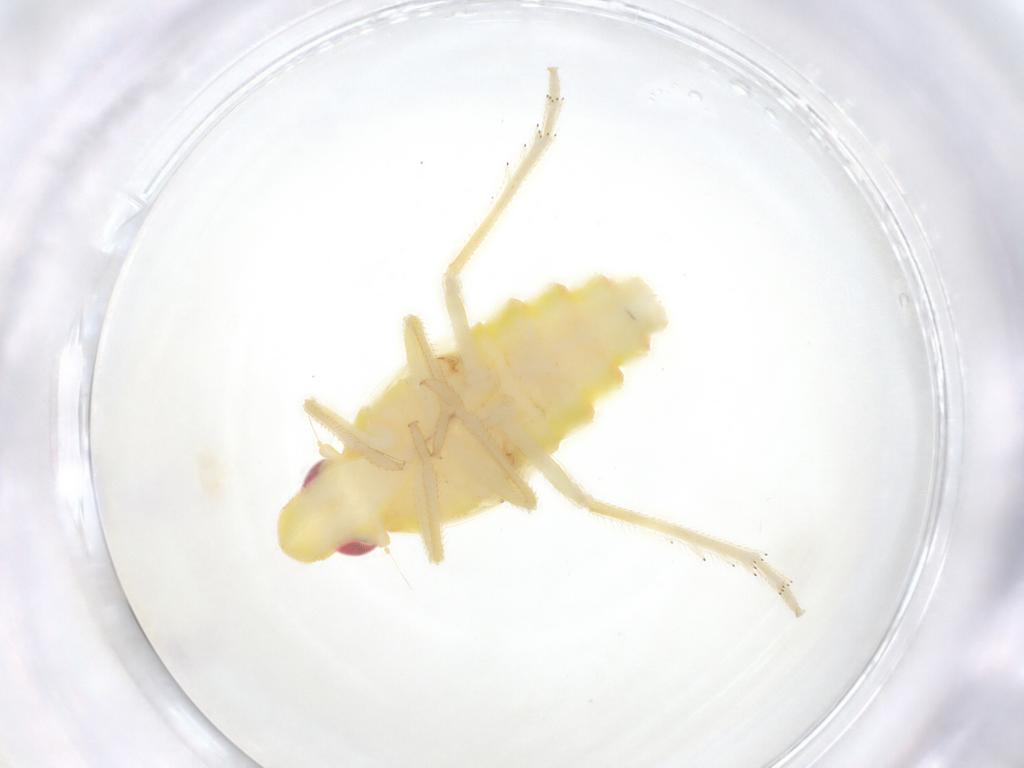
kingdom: Animalia
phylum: Arthropoda
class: Insecta
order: Hemiptera
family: Tropiduchidae
